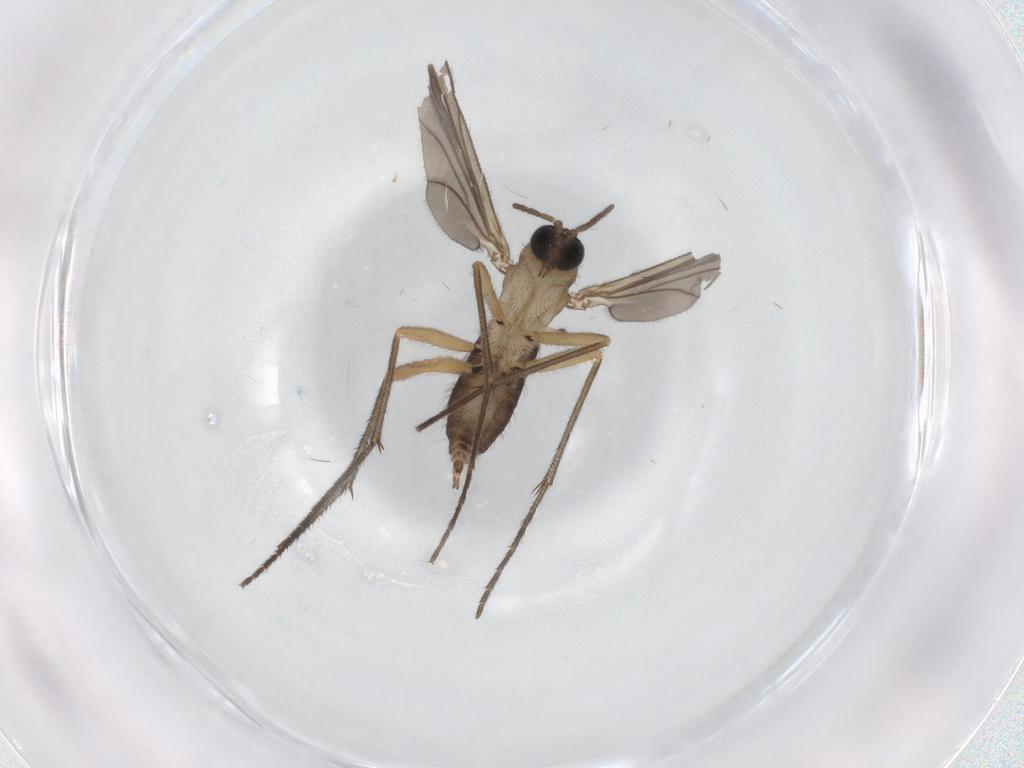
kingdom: Animalia
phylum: Arthropoda
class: Insecta
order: Diptera
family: Sciaridae
